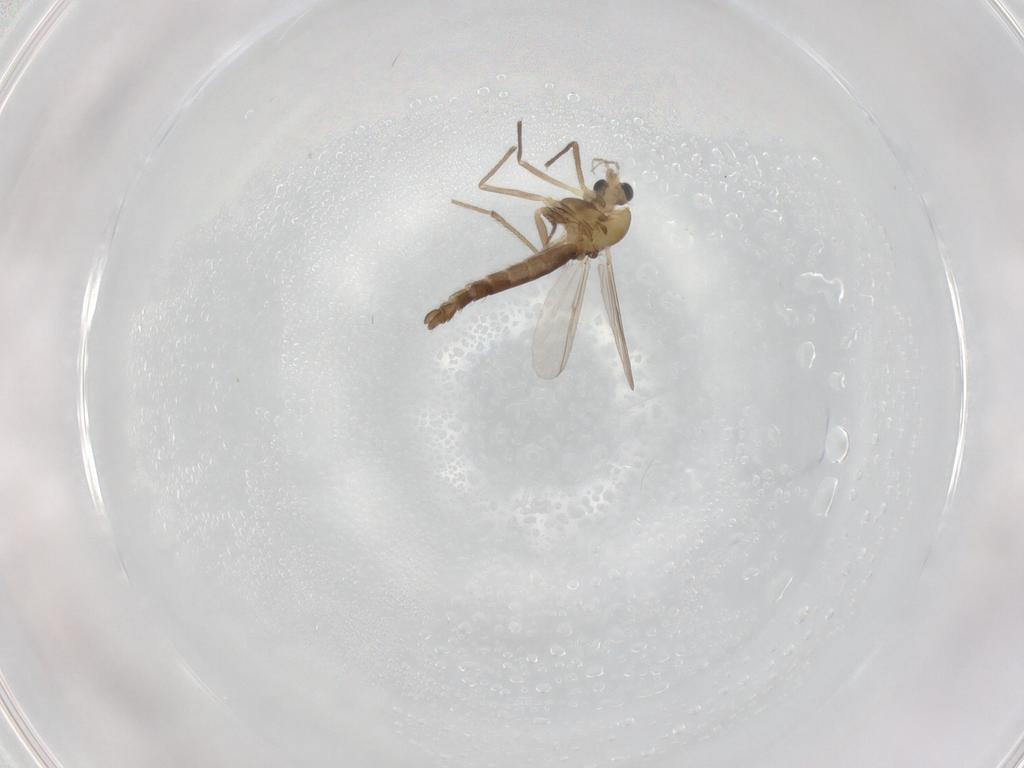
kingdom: Animalia
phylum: Arthropoda
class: Insecta
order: Diptera
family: Chironomidae
